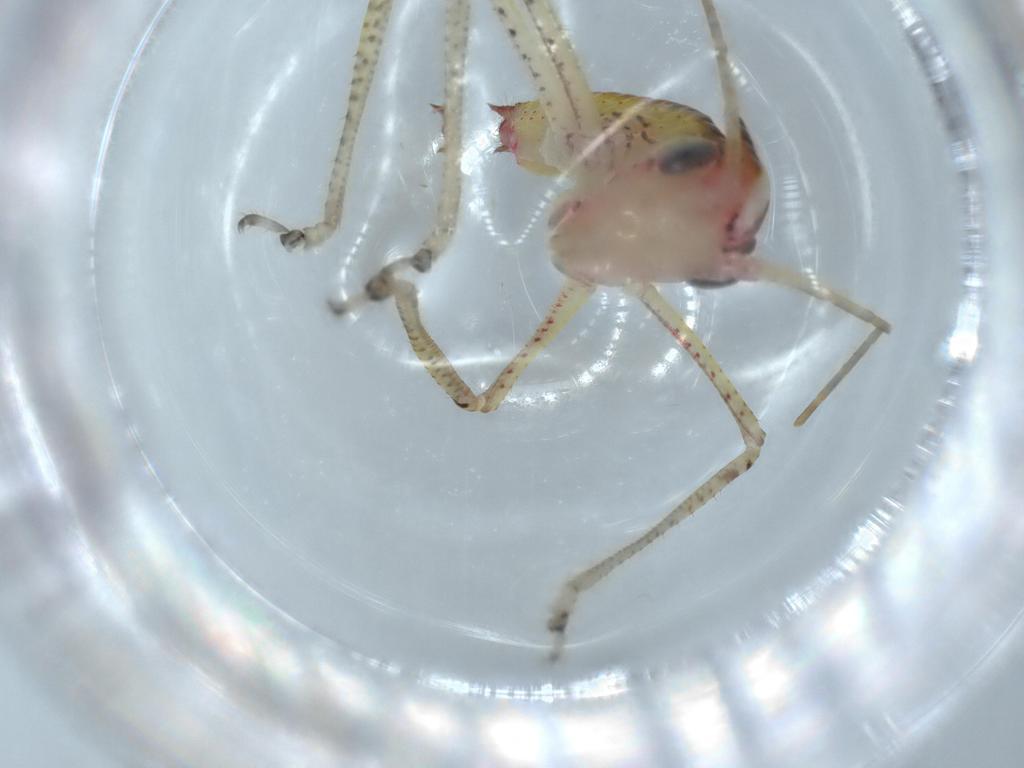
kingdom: Animalia
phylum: Arthropoda
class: Insecta
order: Orthoptera
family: Tettigoniidae
